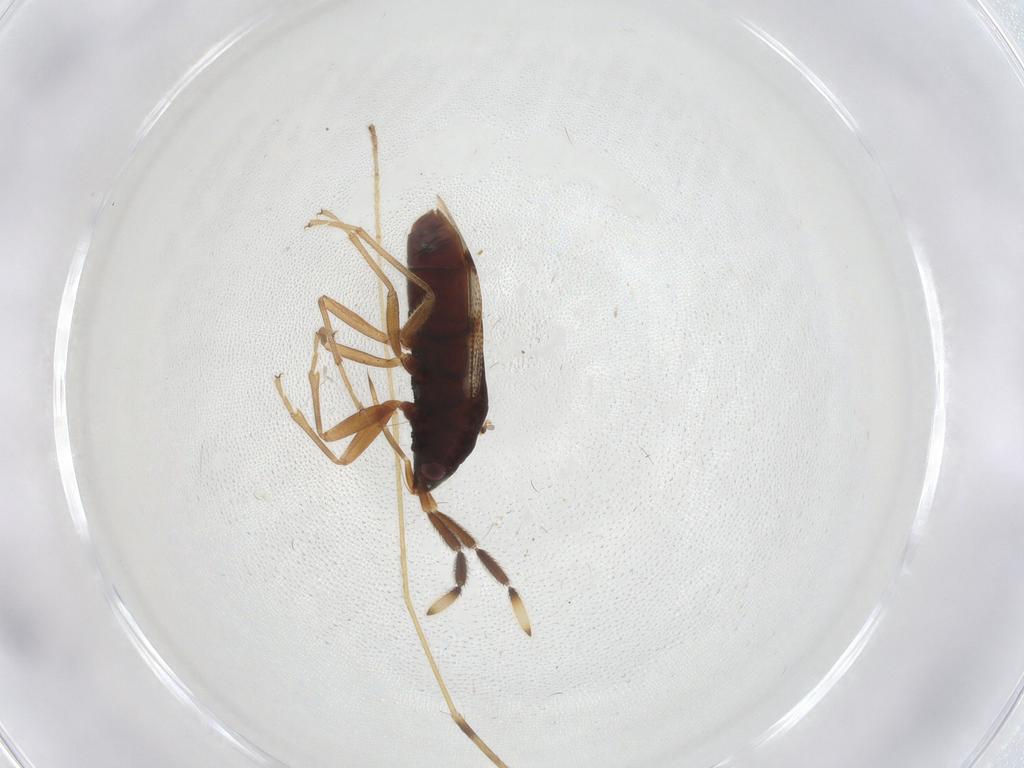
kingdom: Animalia
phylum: Arthropoda
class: Insecta
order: Hemiptera
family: Rhyparochromidae
